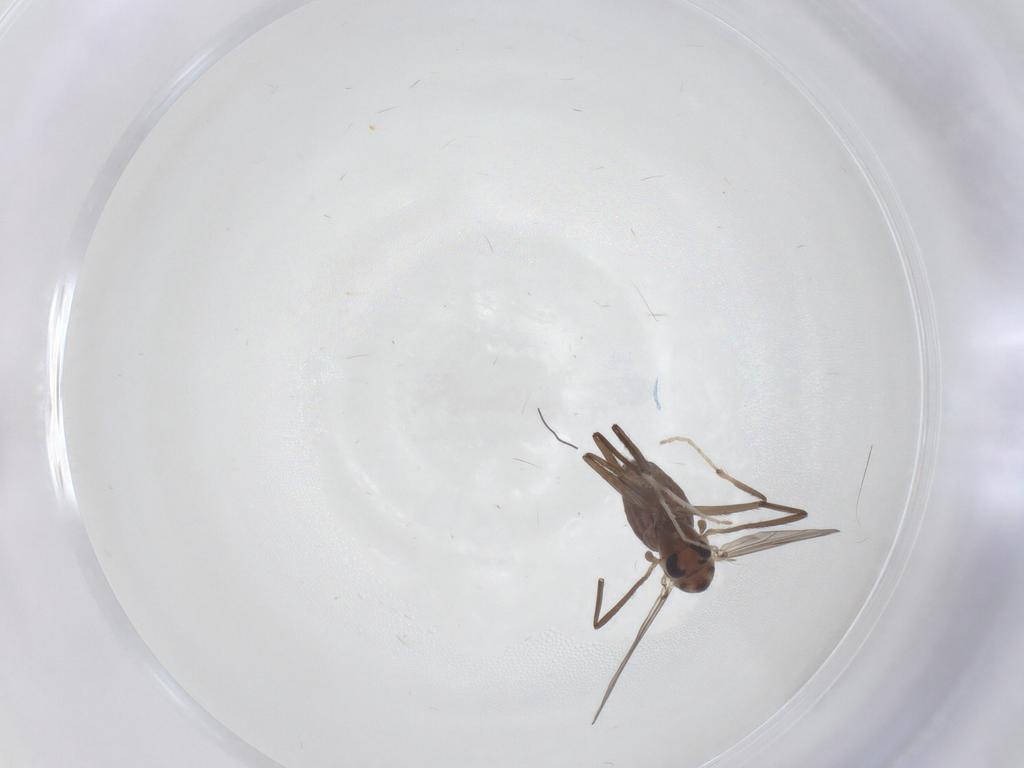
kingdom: Animalia
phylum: Arthropoda
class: Insecta
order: Diptera
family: Chironomidae
